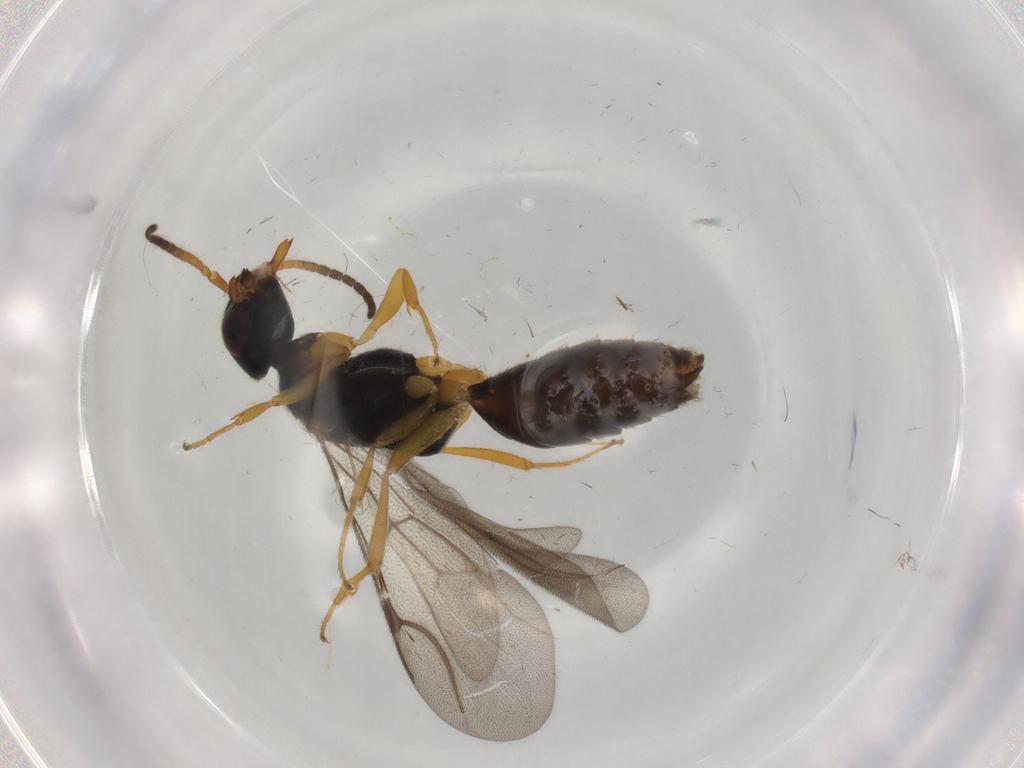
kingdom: Animalia
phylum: Arthropoda
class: Insecta
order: Hymenoptera
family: Bethylidae
